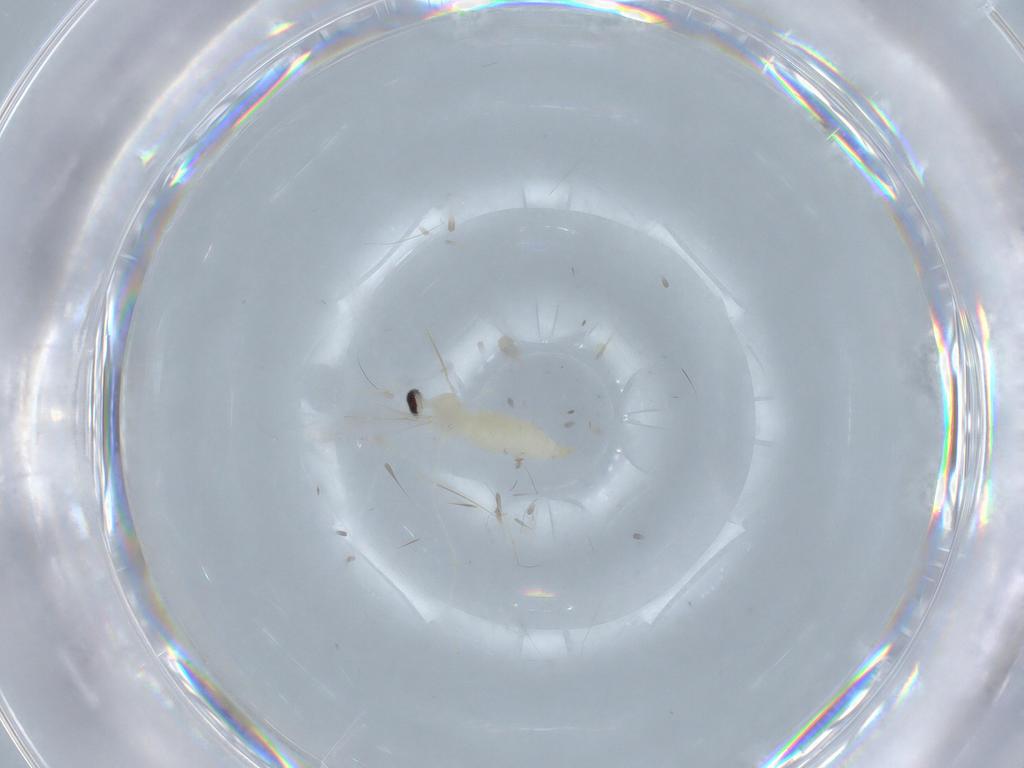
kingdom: Animalia
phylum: Arthropoda
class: Insecta
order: Diptera
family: Cecidomyiidae
